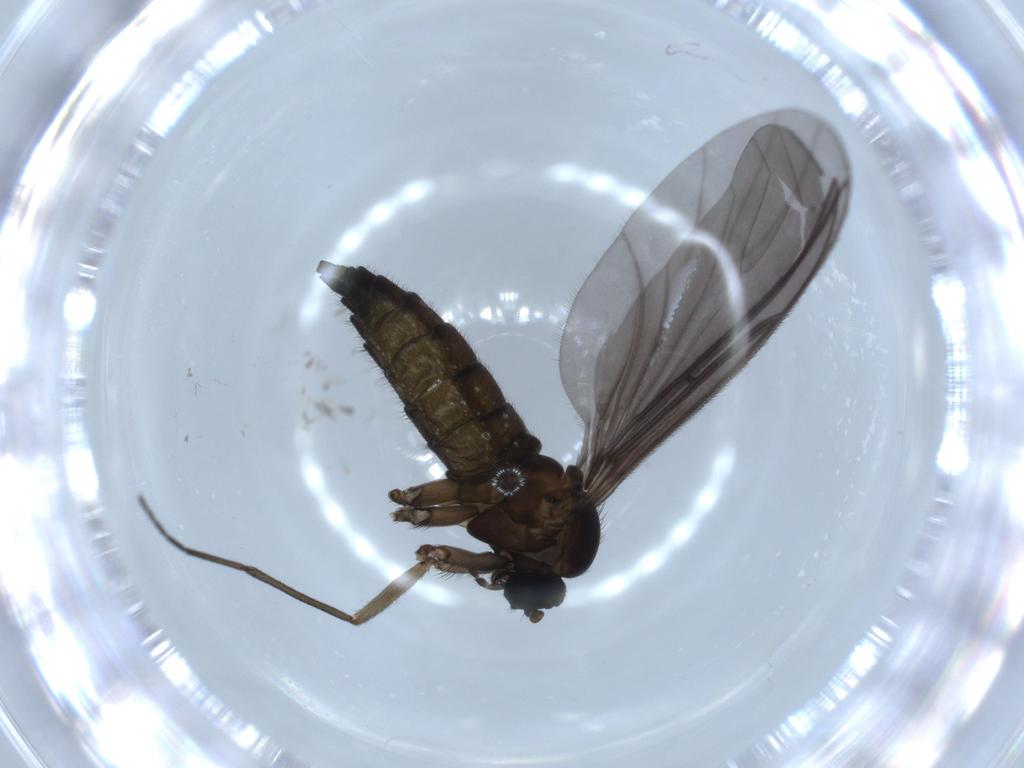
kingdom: Animalia
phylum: Arthropoda
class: Insecta
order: Diptera
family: Sciaridae
